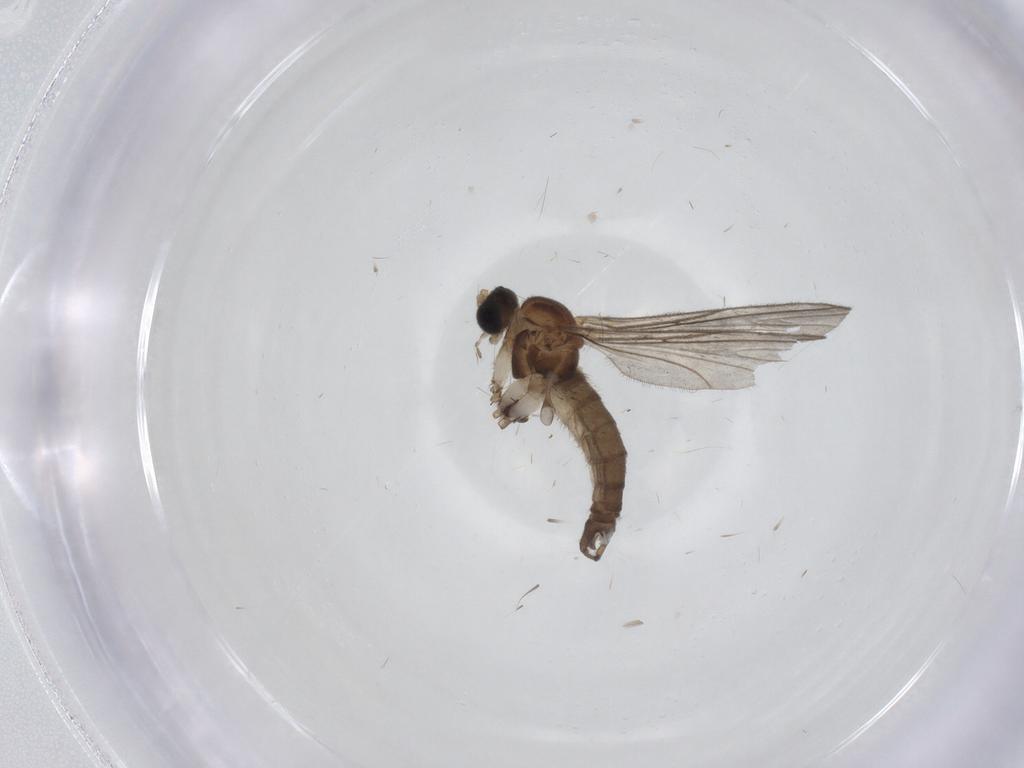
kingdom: Animalia
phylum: Arthropoda
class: Insecta
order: Diptera
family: Sciaridae
